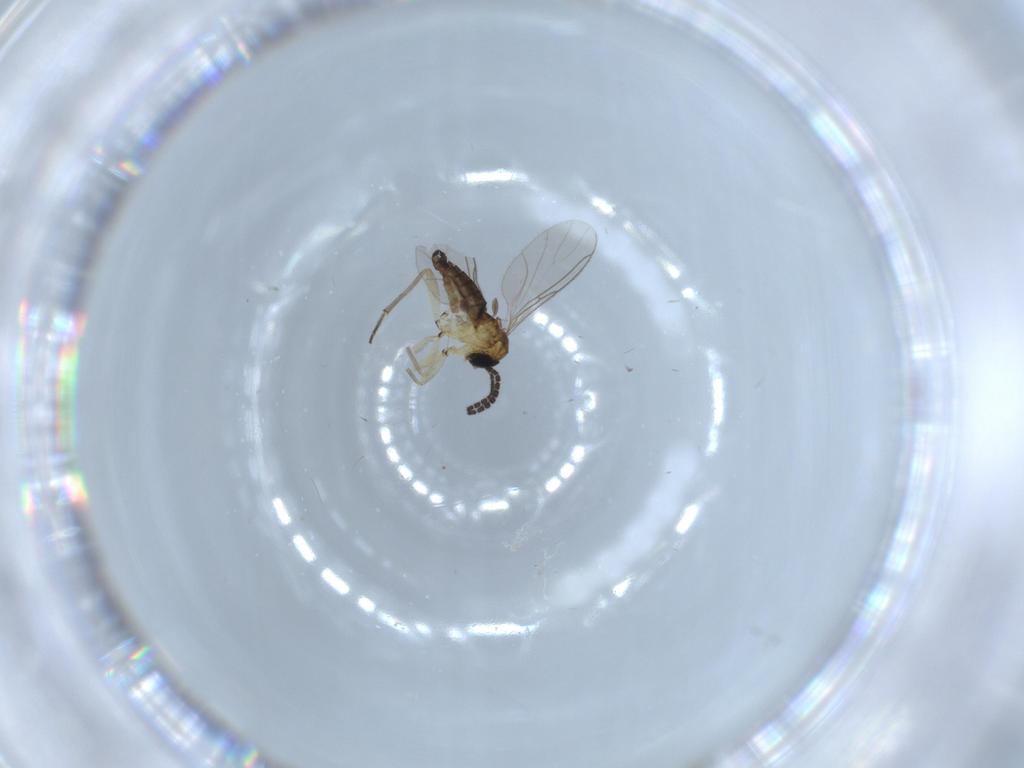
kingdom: Animalia
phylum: Arthropoda
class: Insecta
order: Diptera
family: Sciaridae
